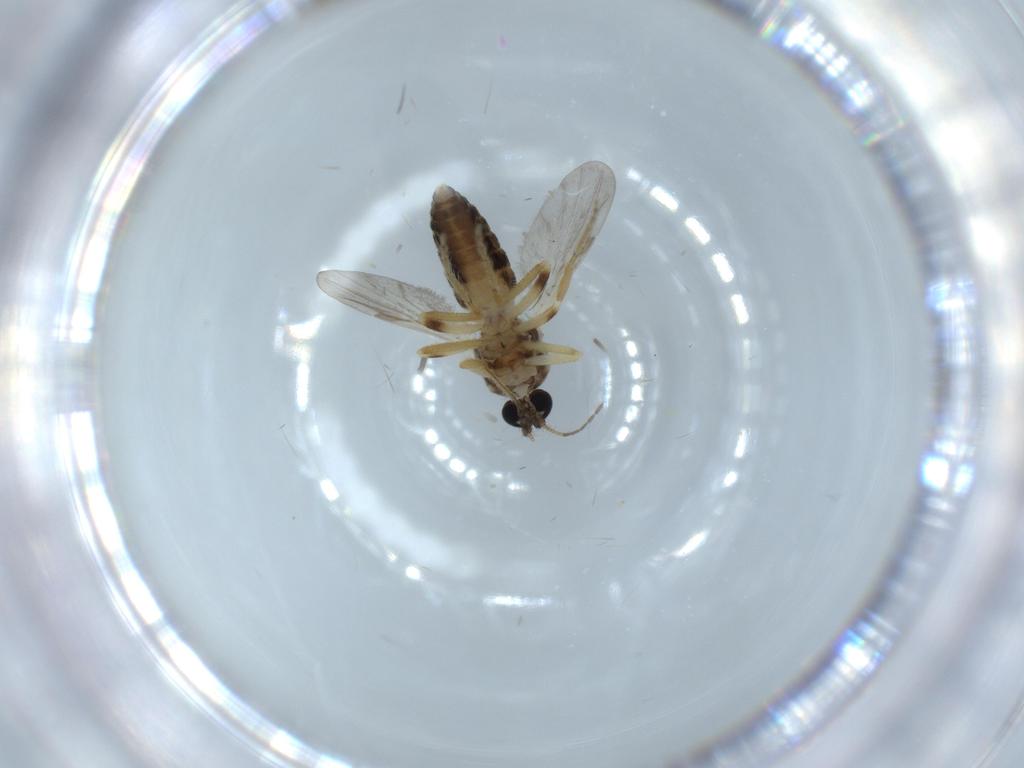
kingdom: Animalia
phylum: Arthropoda
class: Insecta
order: Diptera
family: Ceratopogonidae
